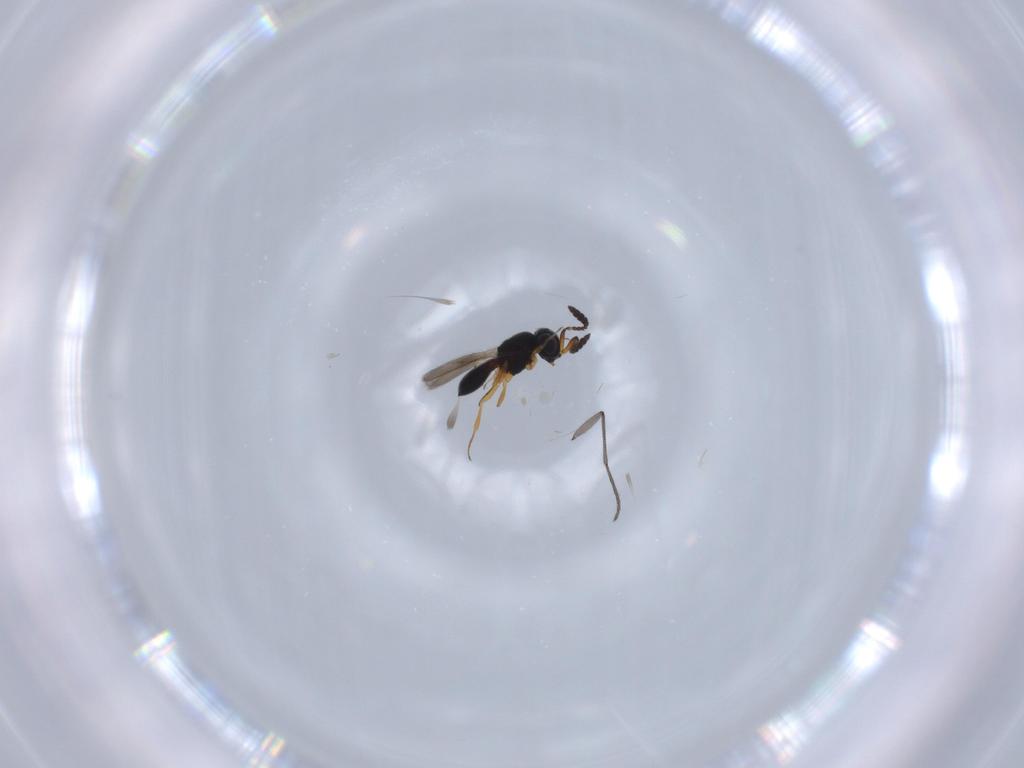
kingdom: Animalia
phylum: Arthropoda
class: Insecta
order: Hymenoptera
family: Scelionidae
